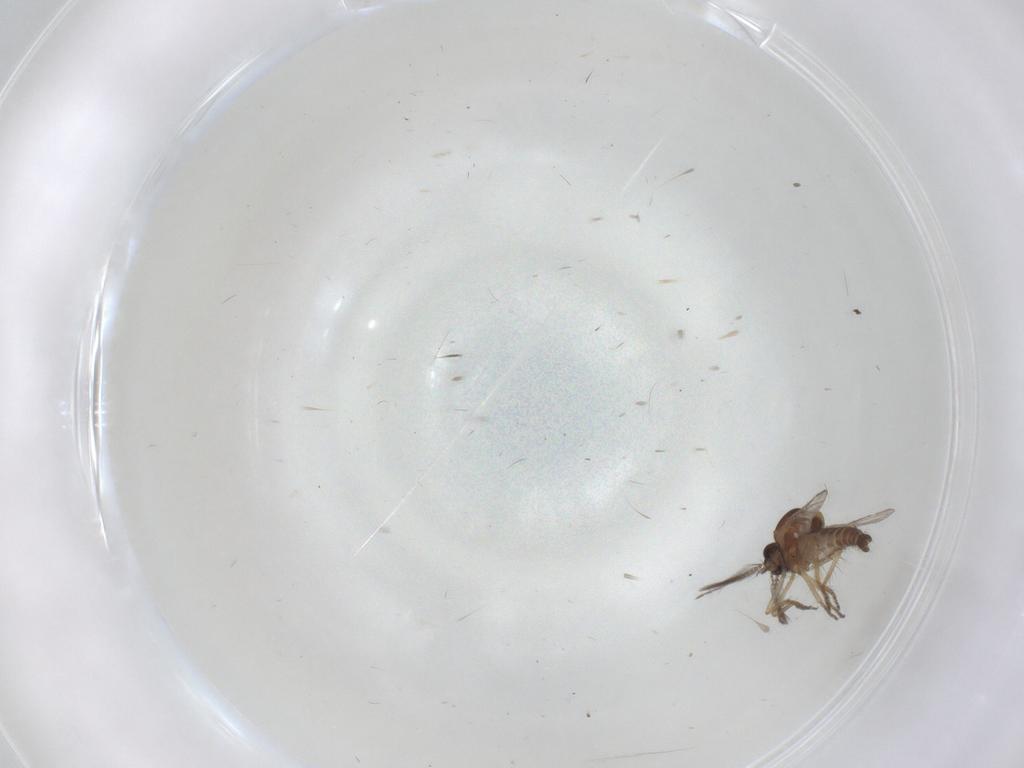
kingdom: Animalia
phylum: Arthropoda
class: Insecta
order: Diptera
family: Chironomidae
